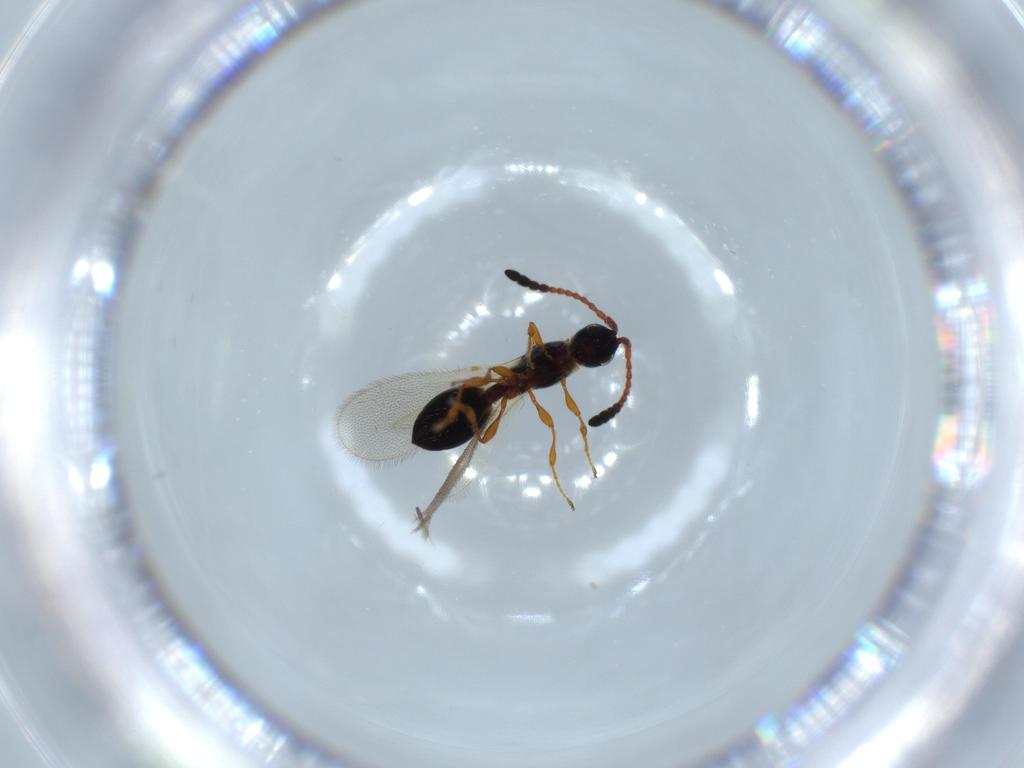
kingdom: Animalia
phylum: Arthropoda
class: Insecta
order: Hymenoptera
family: Diapriidae
